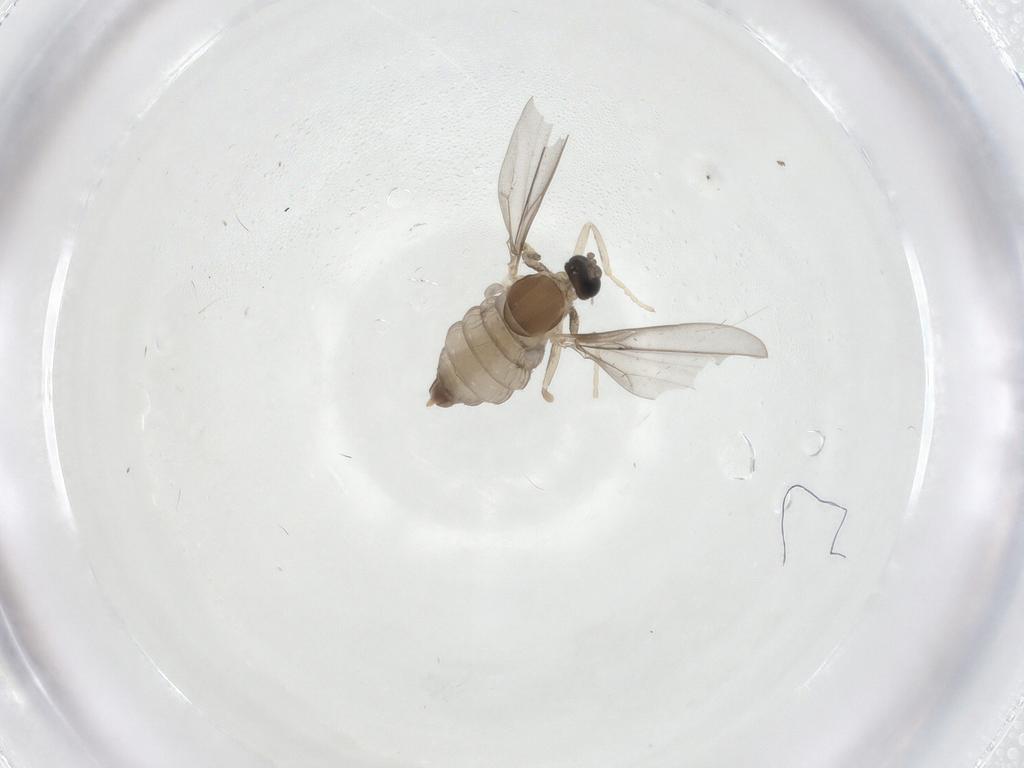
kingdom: Animalia
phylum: Arthropoda
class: Insecta
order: Diptera
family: Cecidomyiidae
